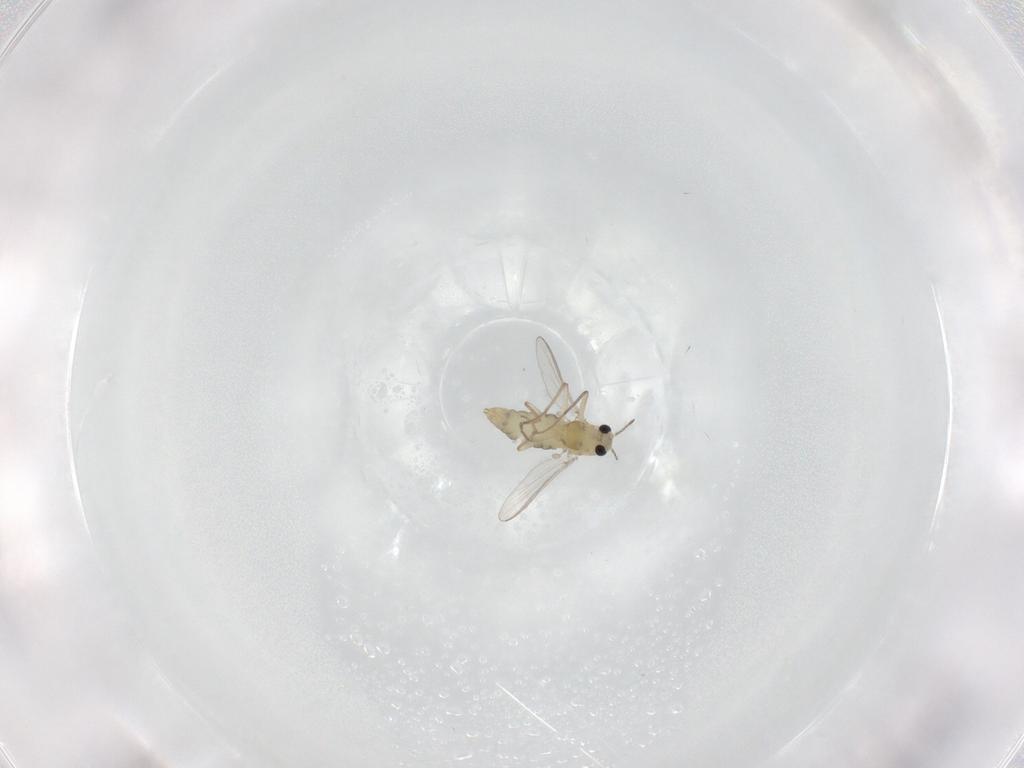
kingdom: Animalia
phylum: Arthropoda
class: Insecta
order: Diptera
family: Chironomidae
